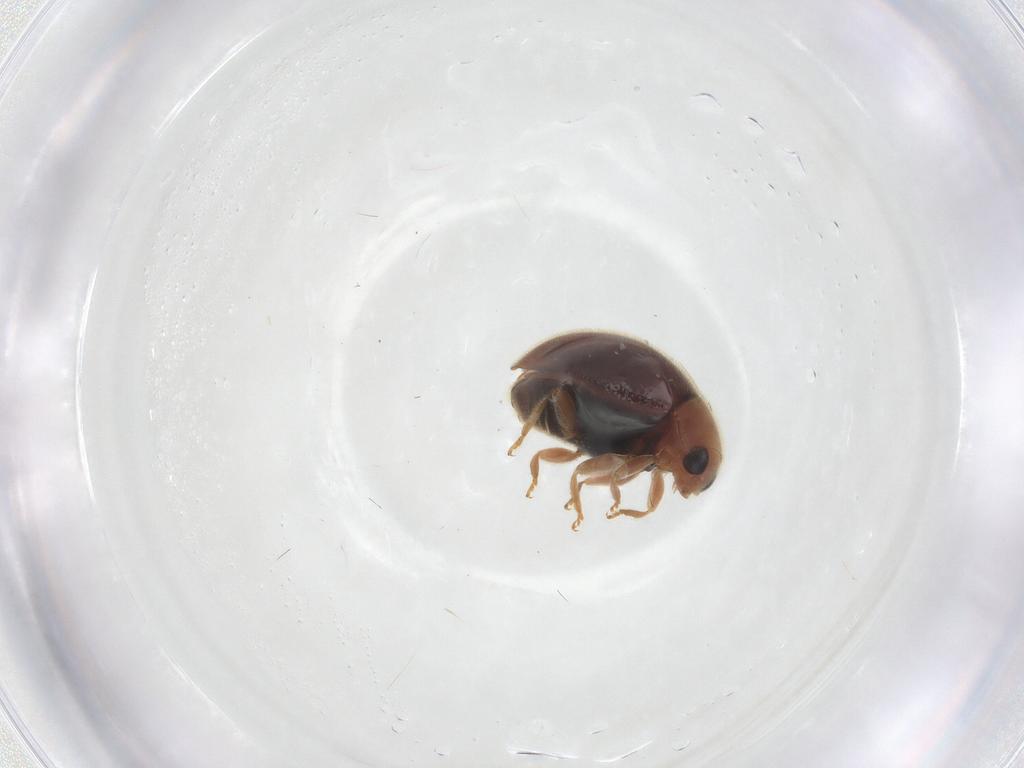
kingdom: Animalia
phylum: Arthropoda
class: Insecta
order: Coleoptera
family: Coccinellidae
